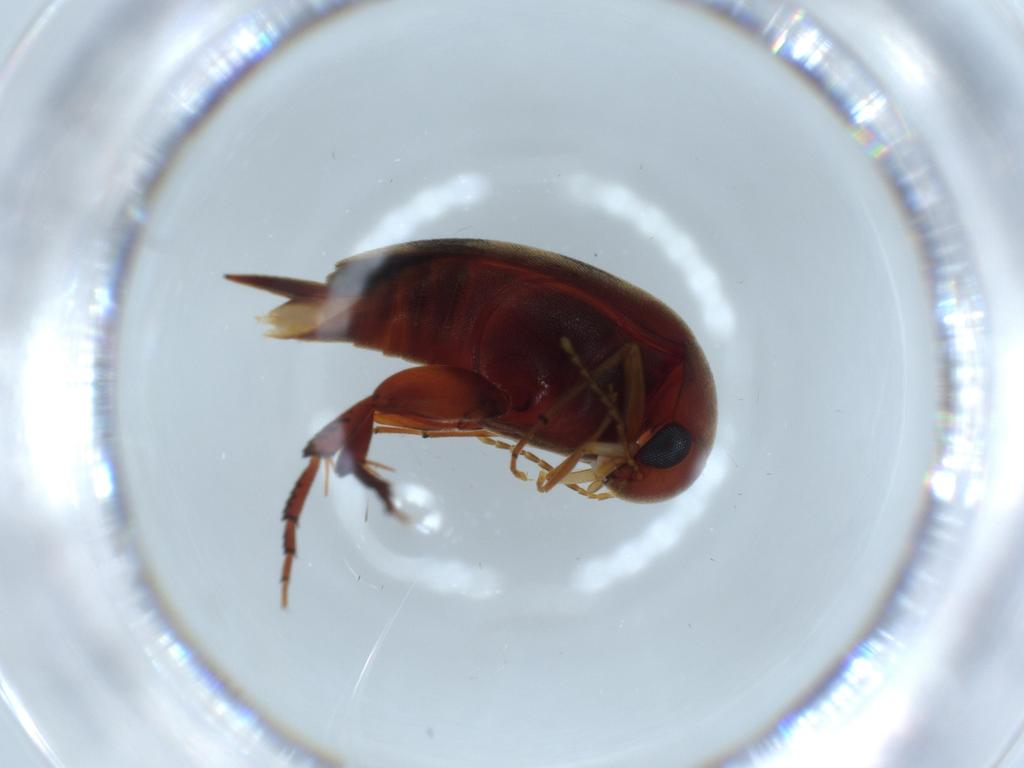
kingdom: Animalia
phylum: Arthropoda
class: Insecta
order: Coleoptera
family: Mordellidae
